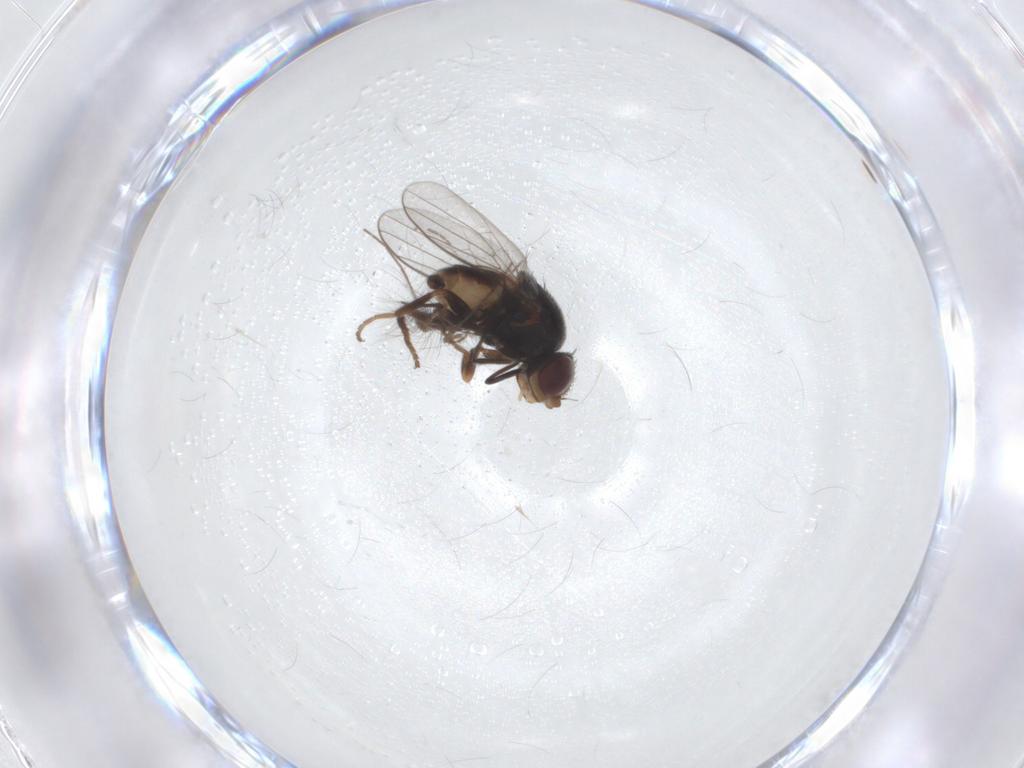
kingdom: Animalia
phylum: Arthropoda
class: Insecta
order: Diptera
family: Chloropidae
